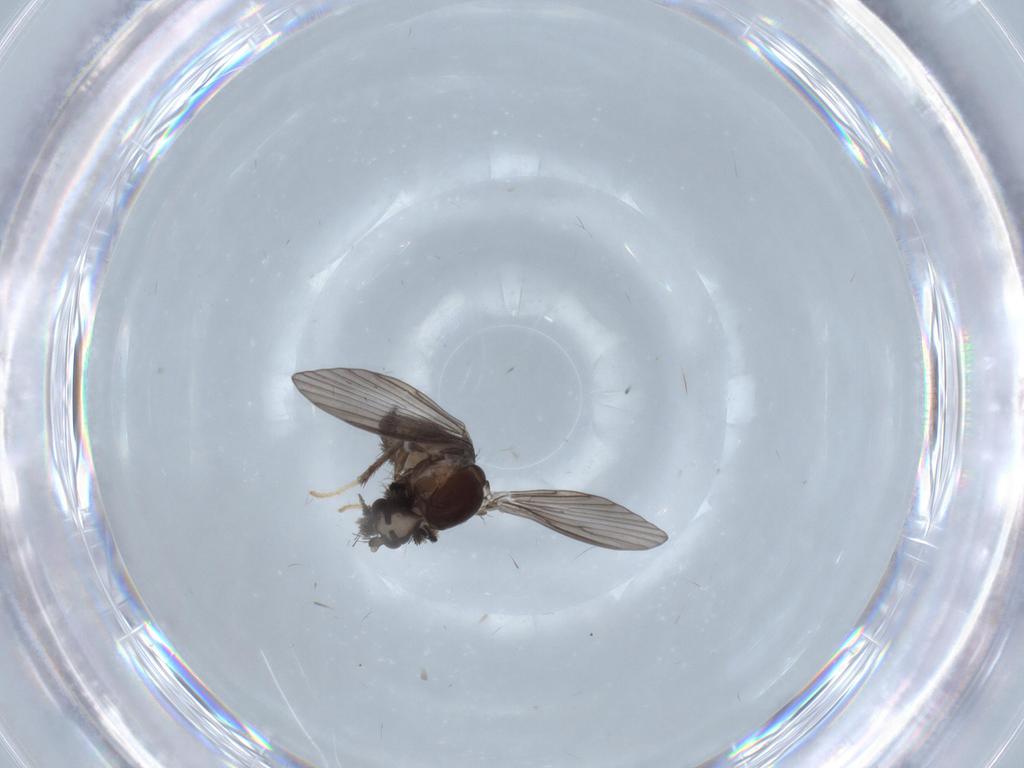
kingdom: Animalia
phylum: Arthropoda
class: Insecta
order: Diptera
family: Cecidomyiidae
